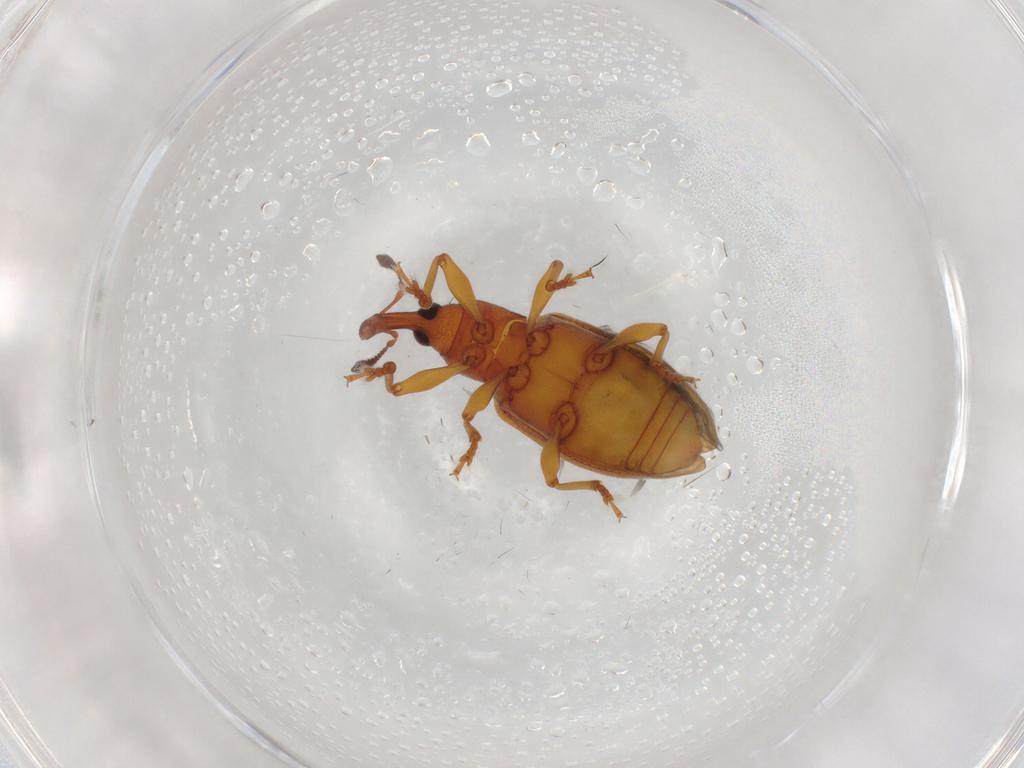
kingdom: Animalia
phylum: Arthropoda
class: Insecta
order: Coleoptera
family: Curculionidae
